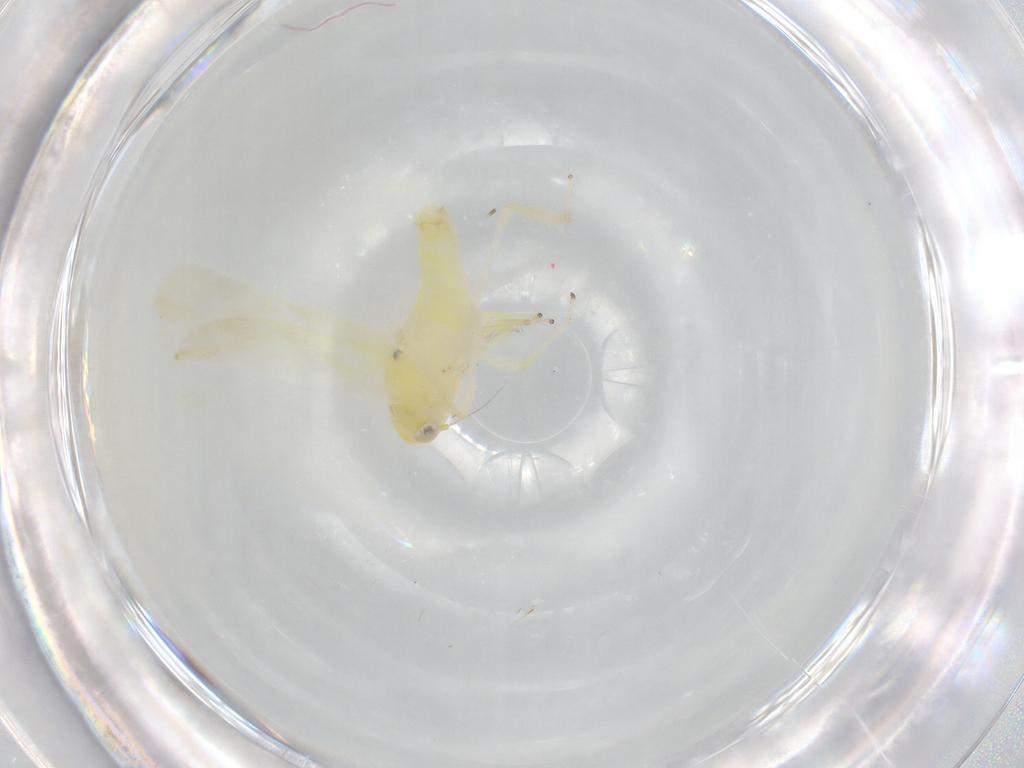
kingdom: Animalia
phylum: Arthropoda
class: Insecta
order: Hemiptera
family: Cicadellidae
